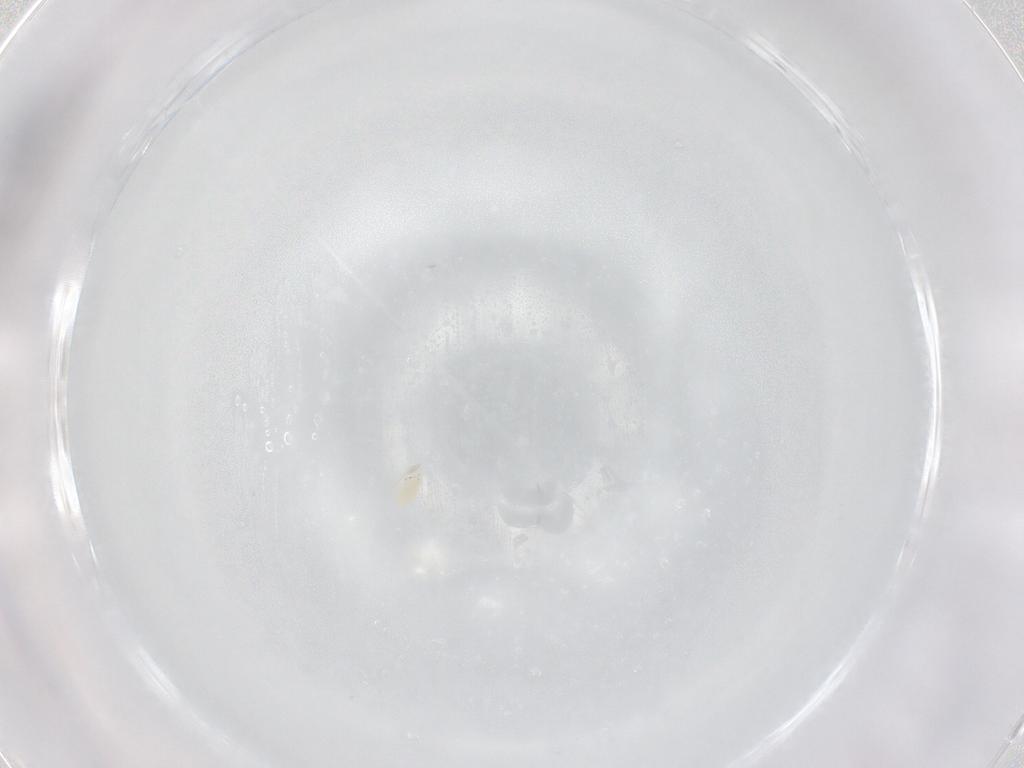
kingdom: Animalia
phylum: Arthropoda
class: Arachnida
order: Trombidiformes
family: Eupodidae
